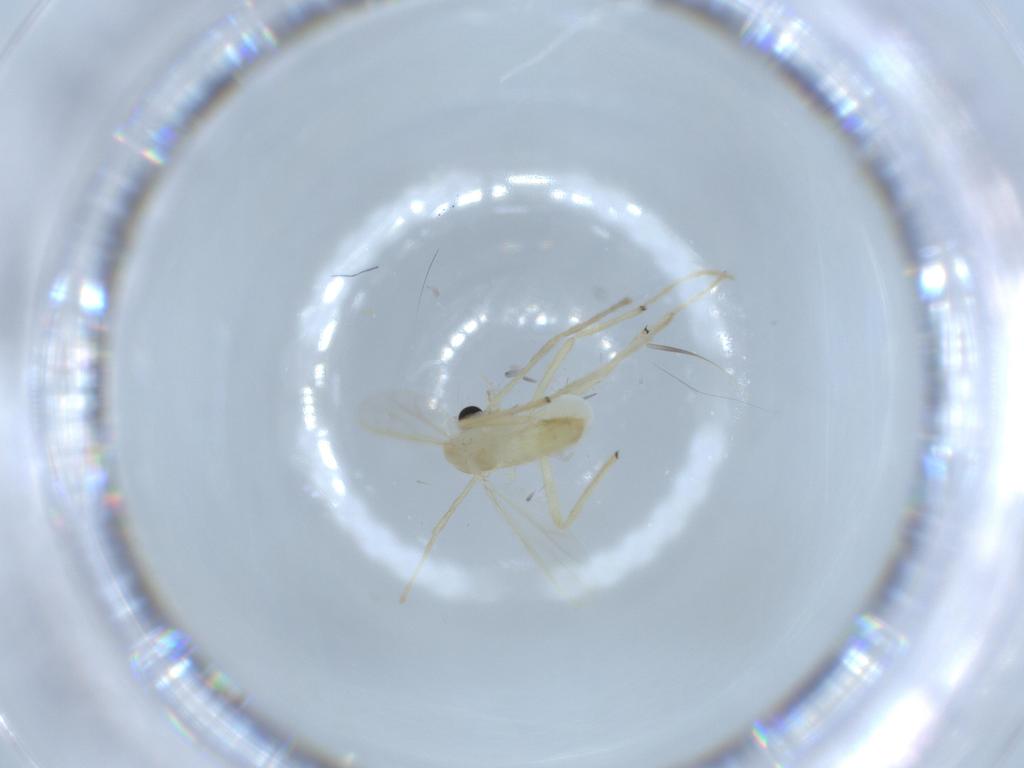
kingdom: Animalia
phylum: Arthropoda
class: Insecta
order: Diptera
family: Chironomidae
